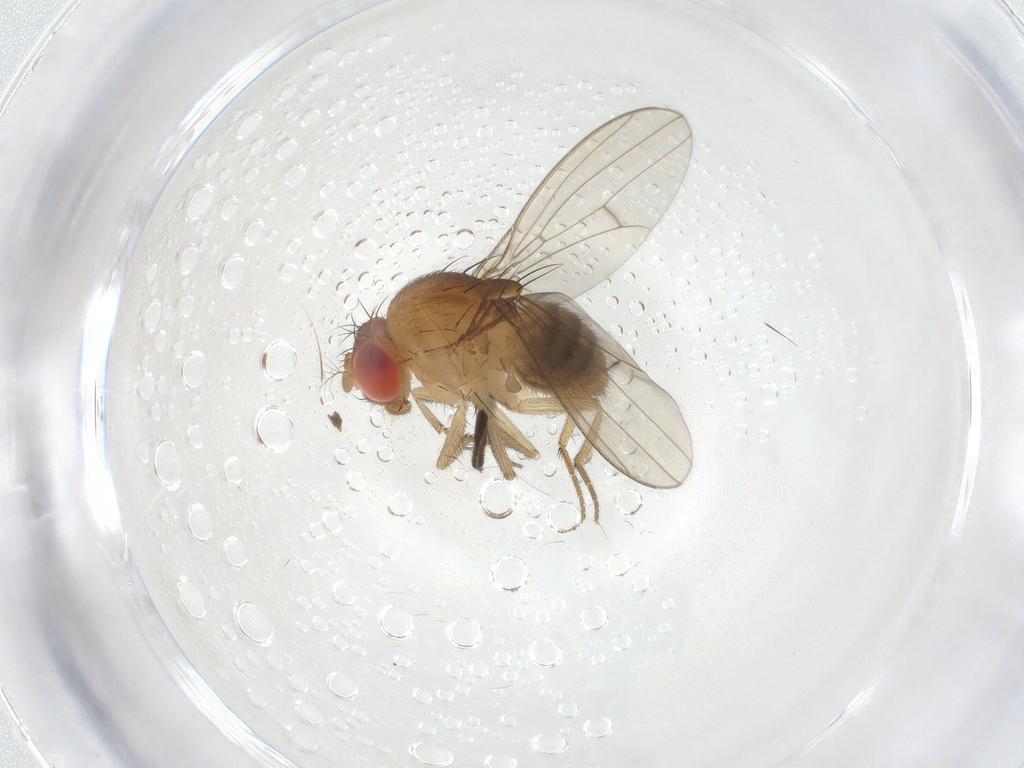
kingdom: Animalia
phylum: Arthropoda
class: Insecta
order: Diptera
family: Drosophilidae
